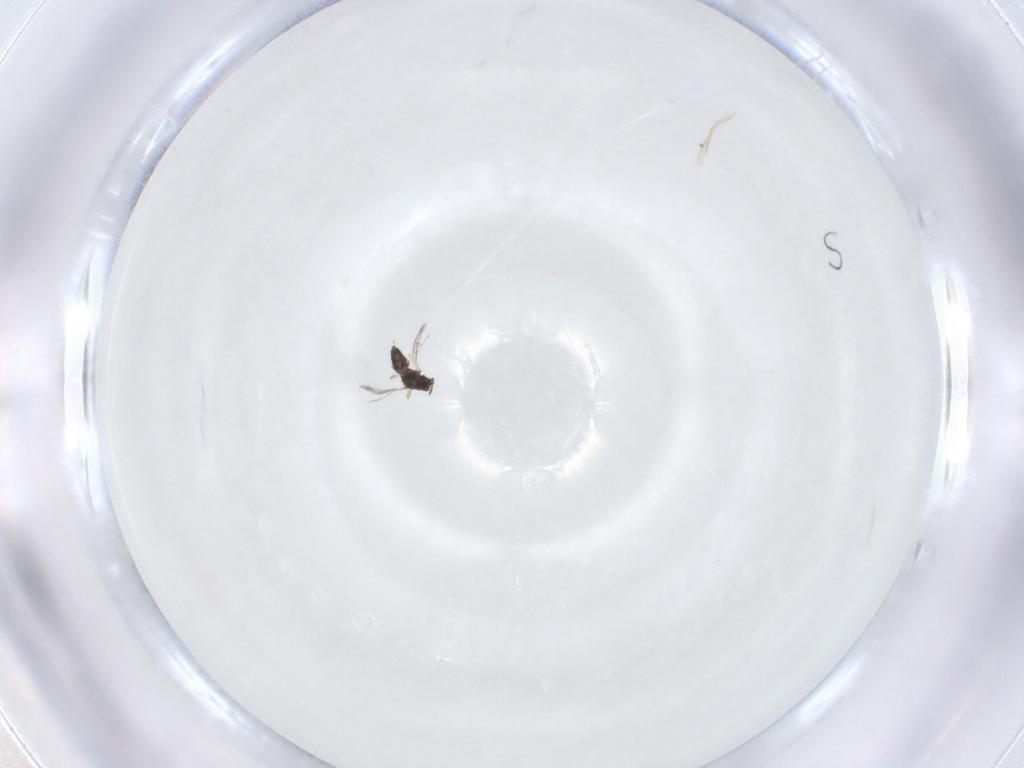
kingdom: Animalia
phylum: Arthropoda
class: Insecta
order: Hymenoptera
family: Eulophidae
